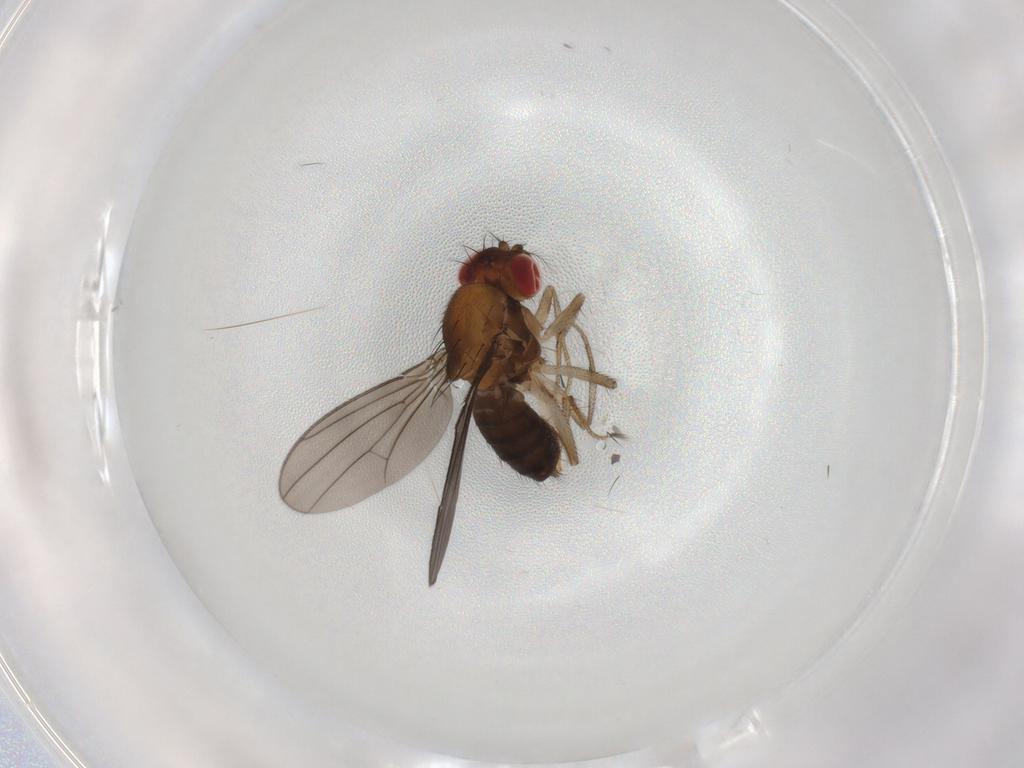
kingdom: Animalia
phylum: Arthropoda
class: Insecta
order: Diptera
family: Drosophilidae
